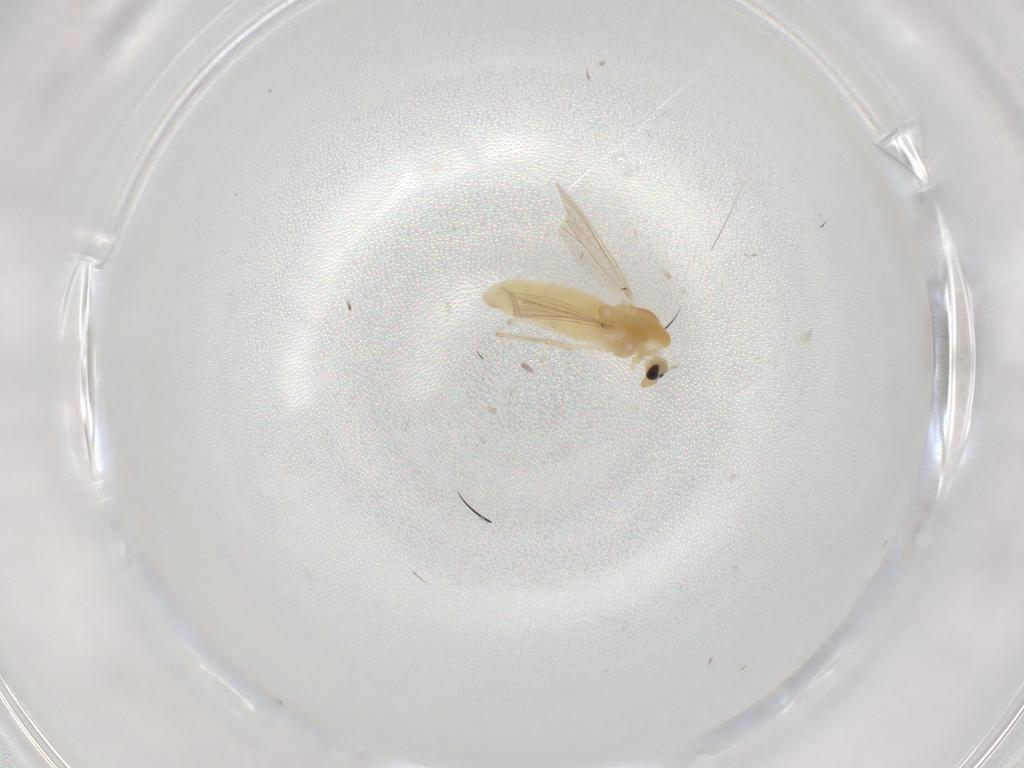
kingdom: Animalia
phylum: Arthropoda
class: Insecta
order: Diptera
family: Chironomidae
